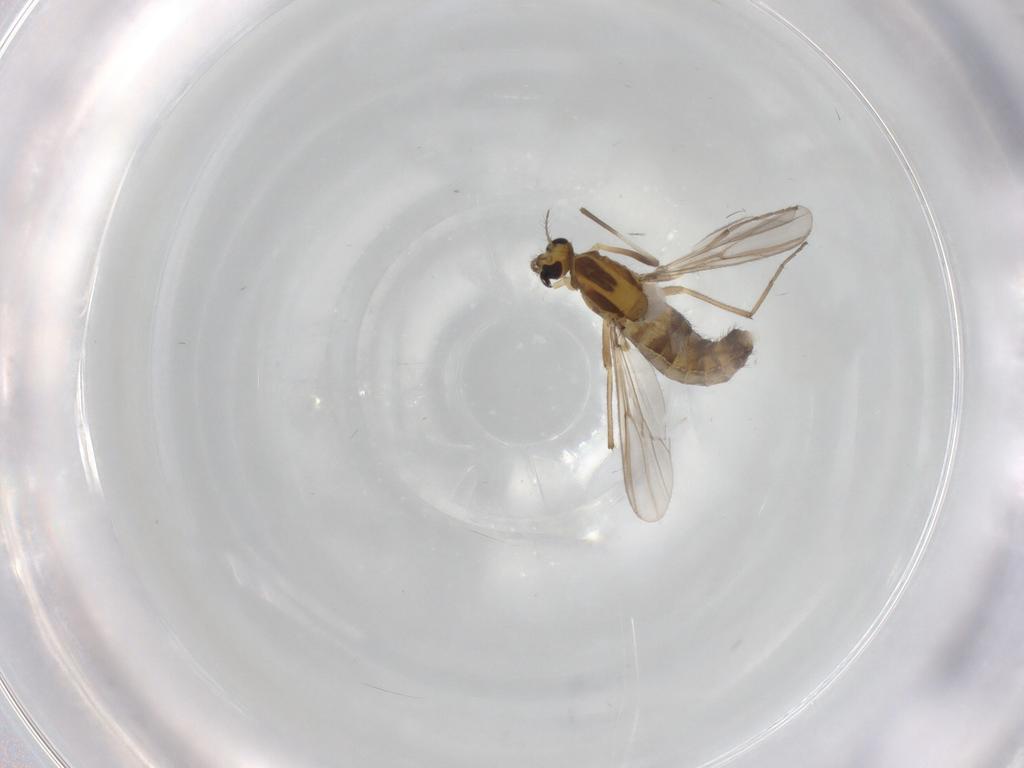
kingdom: Animalia
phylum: Arthropoda
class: Insecta
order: Diptera
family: Chironomidae
